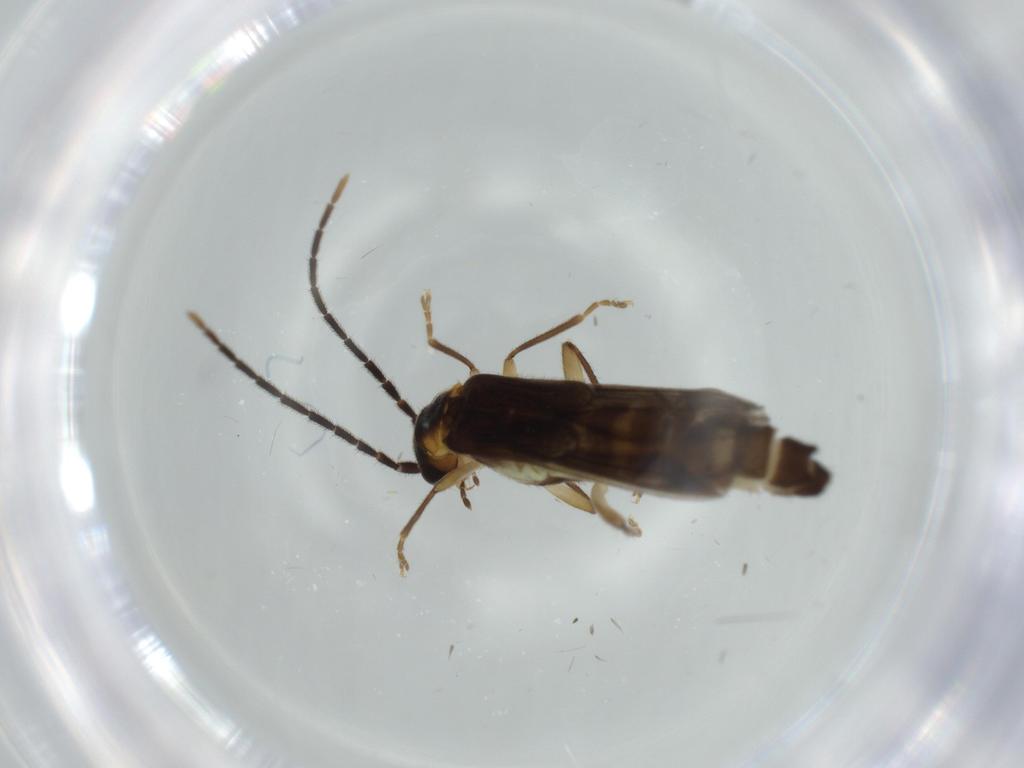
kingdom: Animalia
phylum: Arthropoda
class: Insecta
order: Coleoptera
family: Cantharidae
